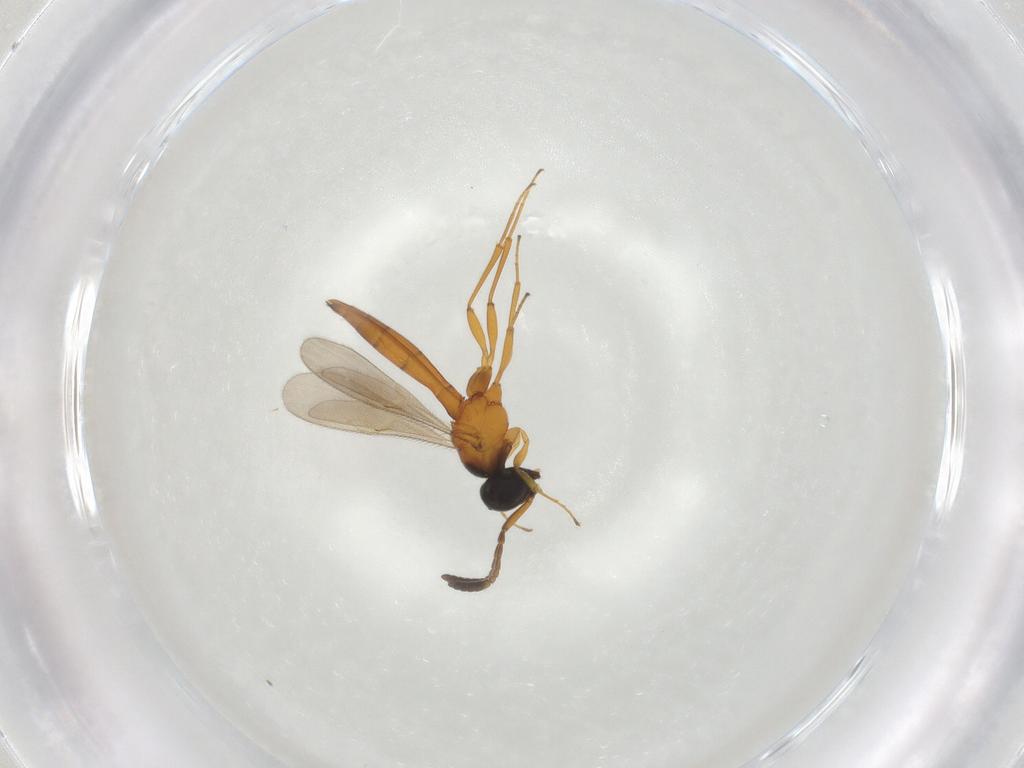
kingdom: Animalia
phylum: Arthropoda
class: Insecta
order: Hymenoptera
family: Scelionidae
